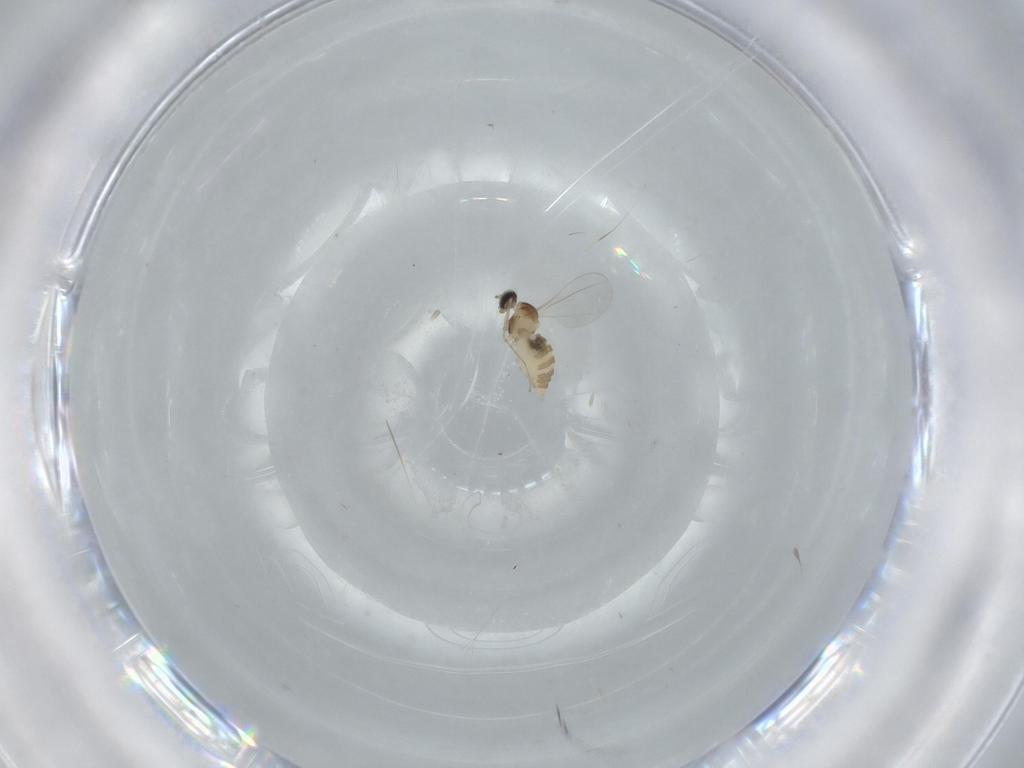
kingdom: Animalia
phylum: Arthropoda
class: Insecta
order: Diptera
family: Cecidomyiidae
